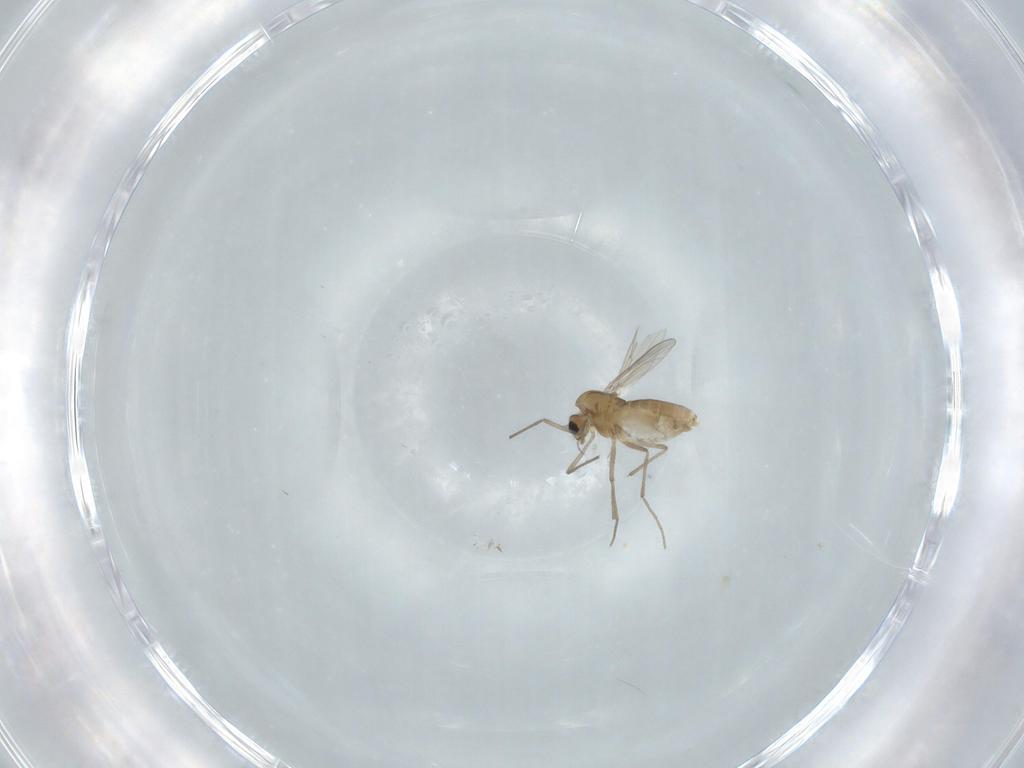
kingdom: Animalia
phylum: Arthropoda
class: Insecta
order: Diptera
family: Chironomidae
